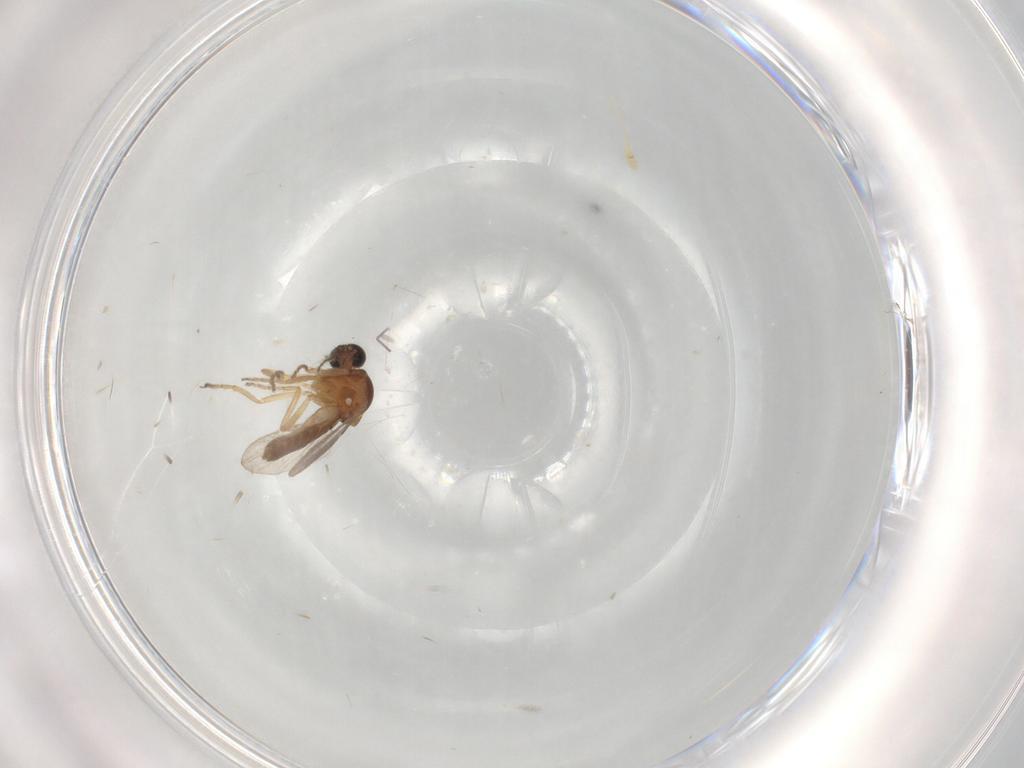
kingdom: Animalia
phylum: Arthropoda
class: Insecta
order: Diptera
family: Ceratopogonidae
